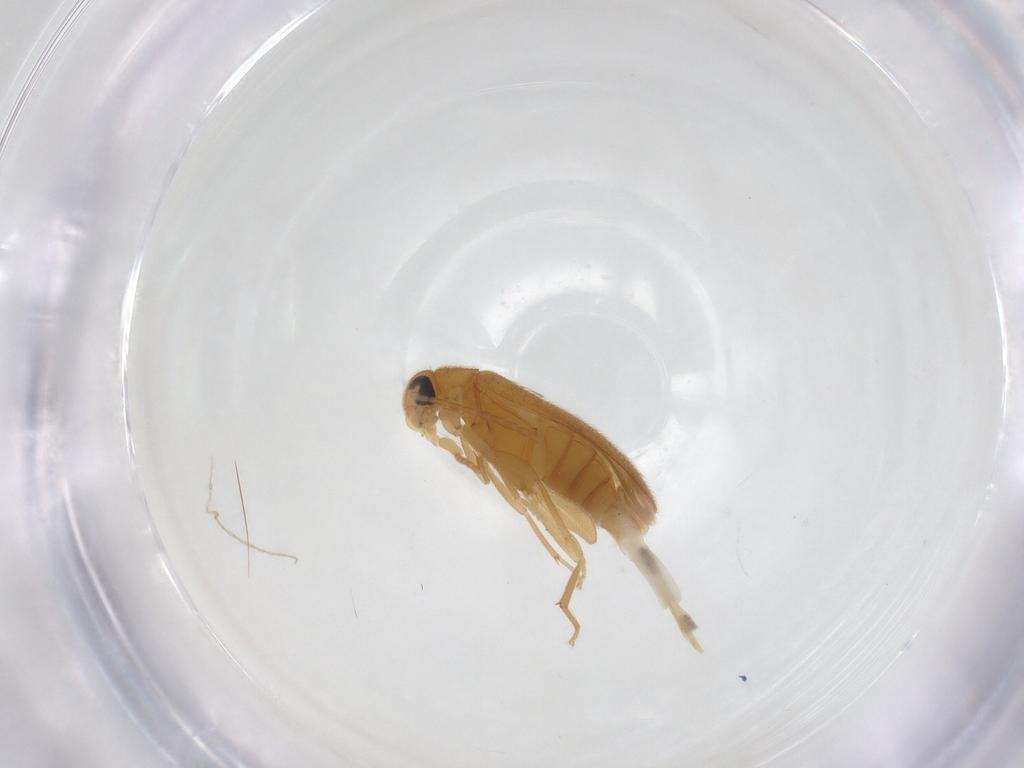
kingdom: Animalia
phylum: Arthropoda
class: Insecta
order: Coleoptera
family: Scraptiidae
